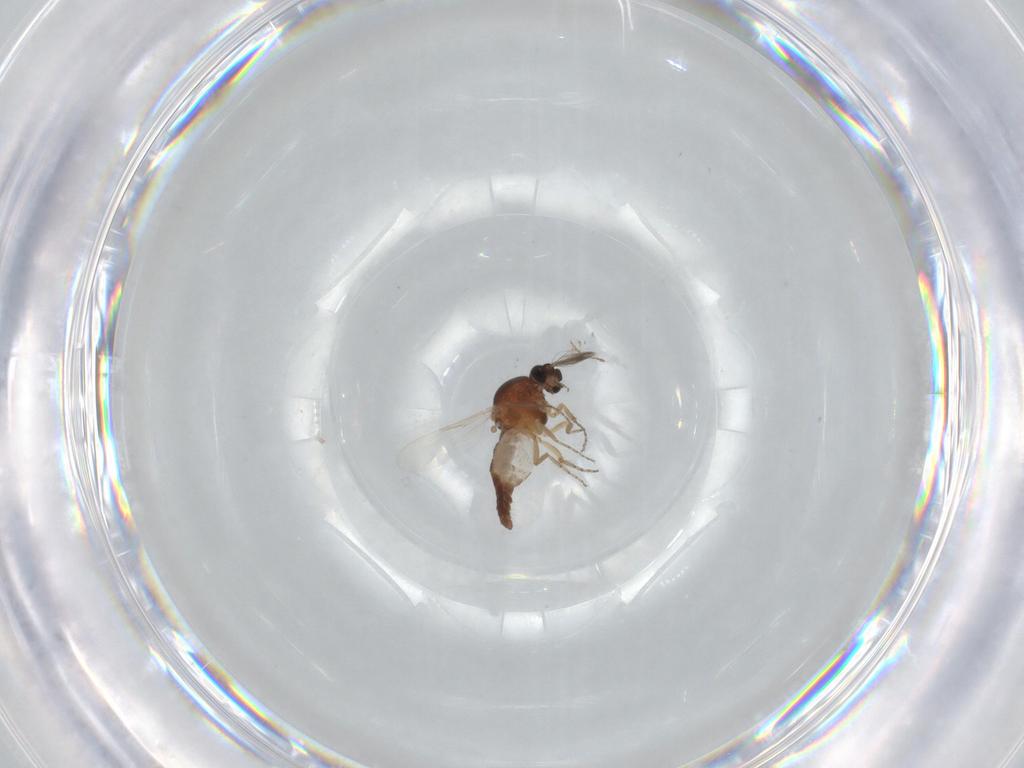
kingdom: Animalia
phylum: Arthropoda
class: Insecta
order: Diptera
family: Ceratopogonidae
